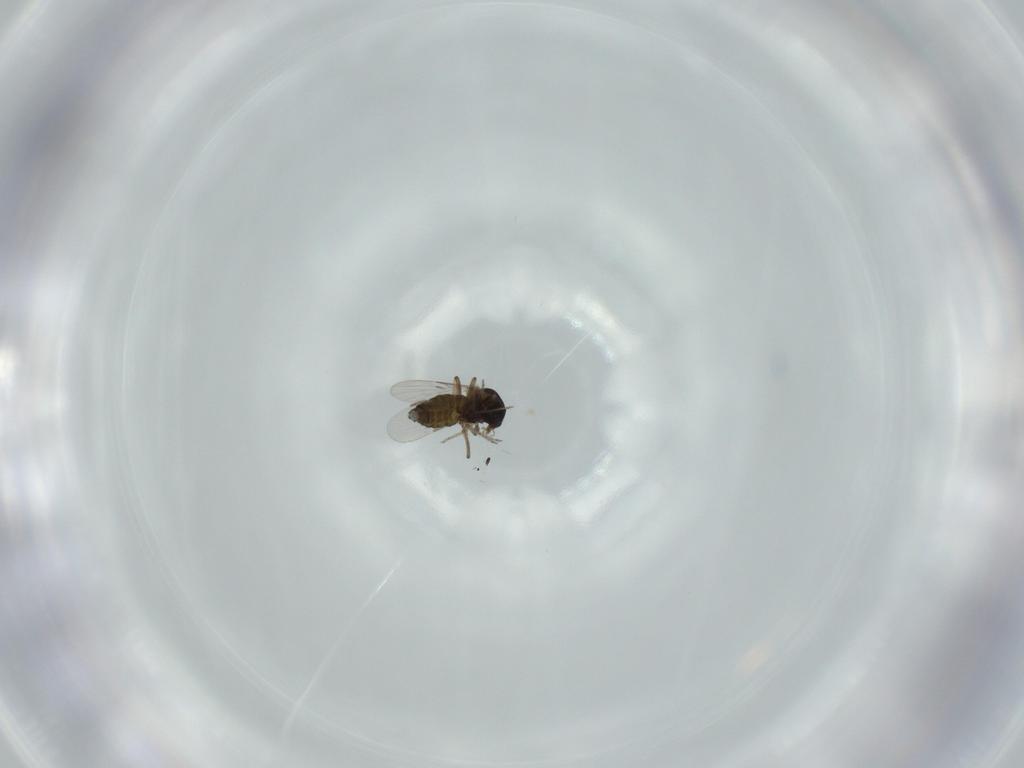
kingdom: Animalia
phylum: Arthropoda
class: Insecta
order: Diptera
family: Ceratopogonidae
